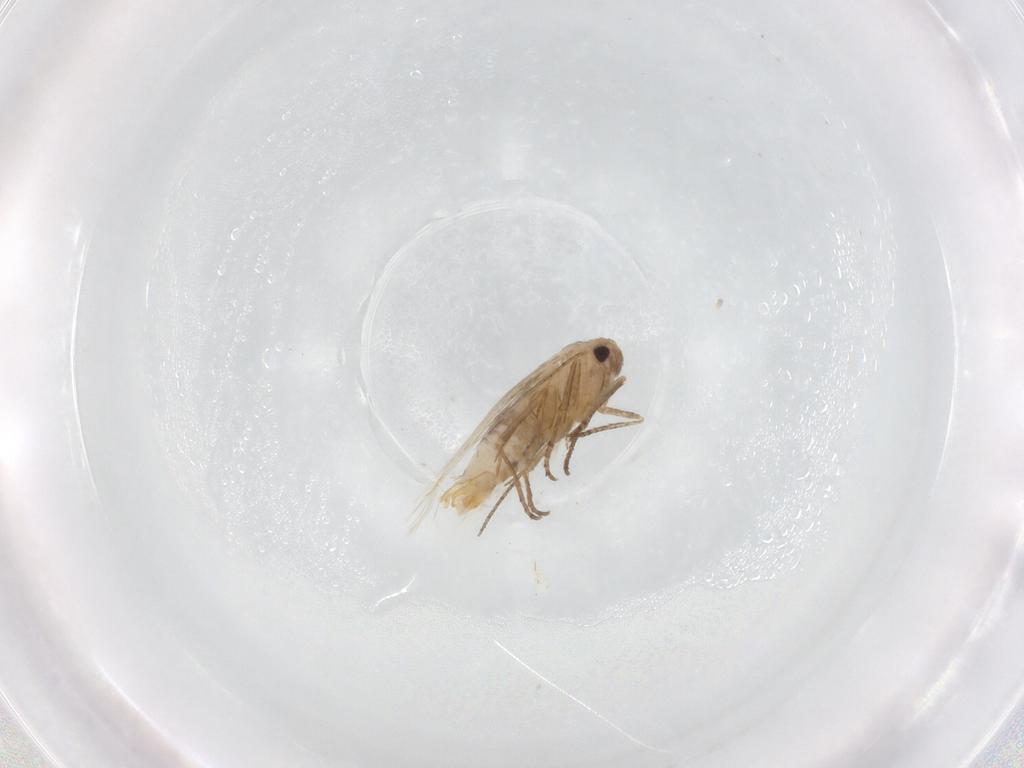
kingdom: Animalia
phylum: Arthropoda
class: Insecta
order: Lepidoptera
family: Bucculatricidae
